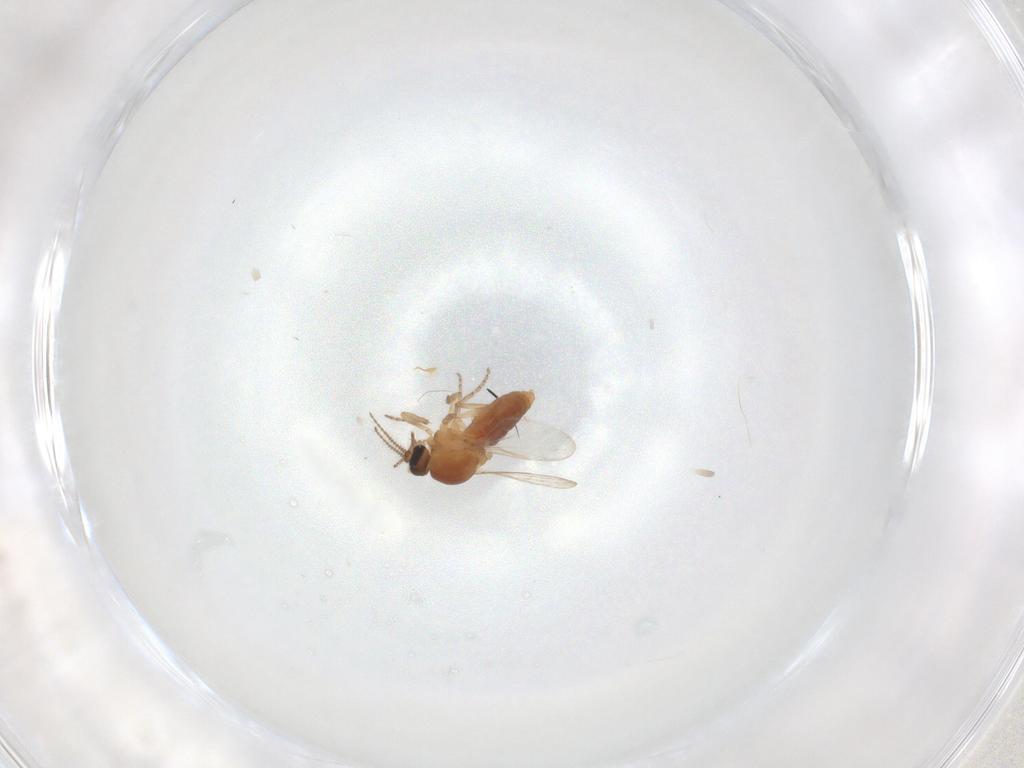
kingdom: Animalia
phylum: Arthropoda
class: Insecta
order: Diptera
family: Ceratopogonidae
